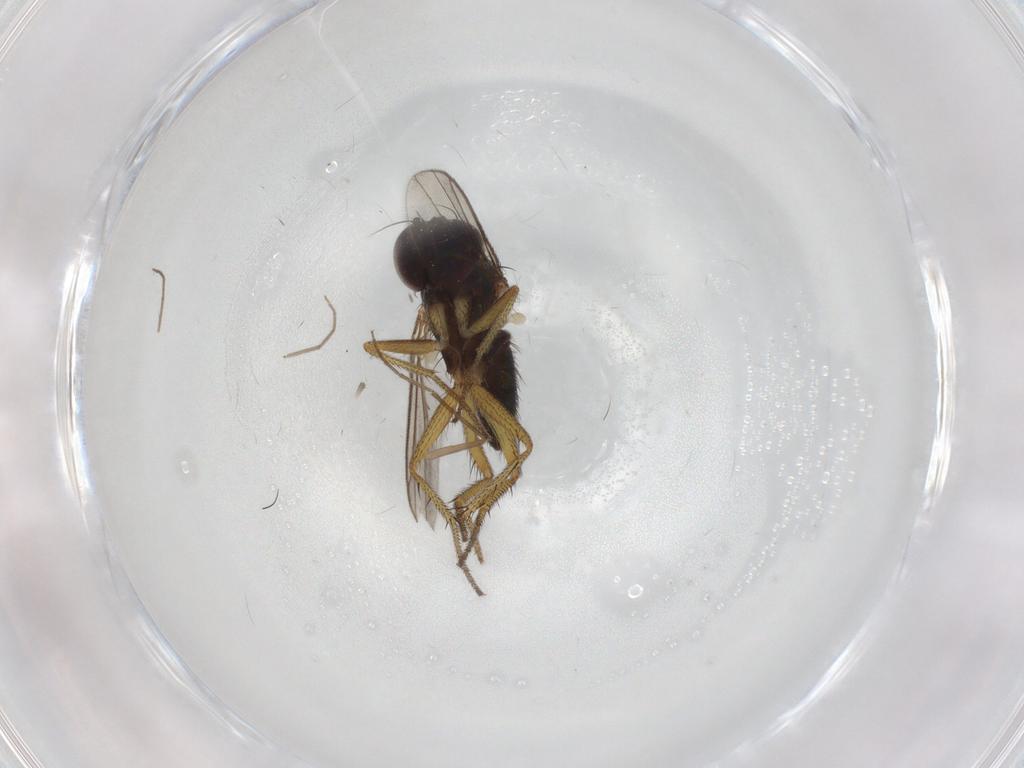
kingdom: Animalia
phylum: Arthropoda
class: Insecta
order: Diptera
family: Chironomidae
